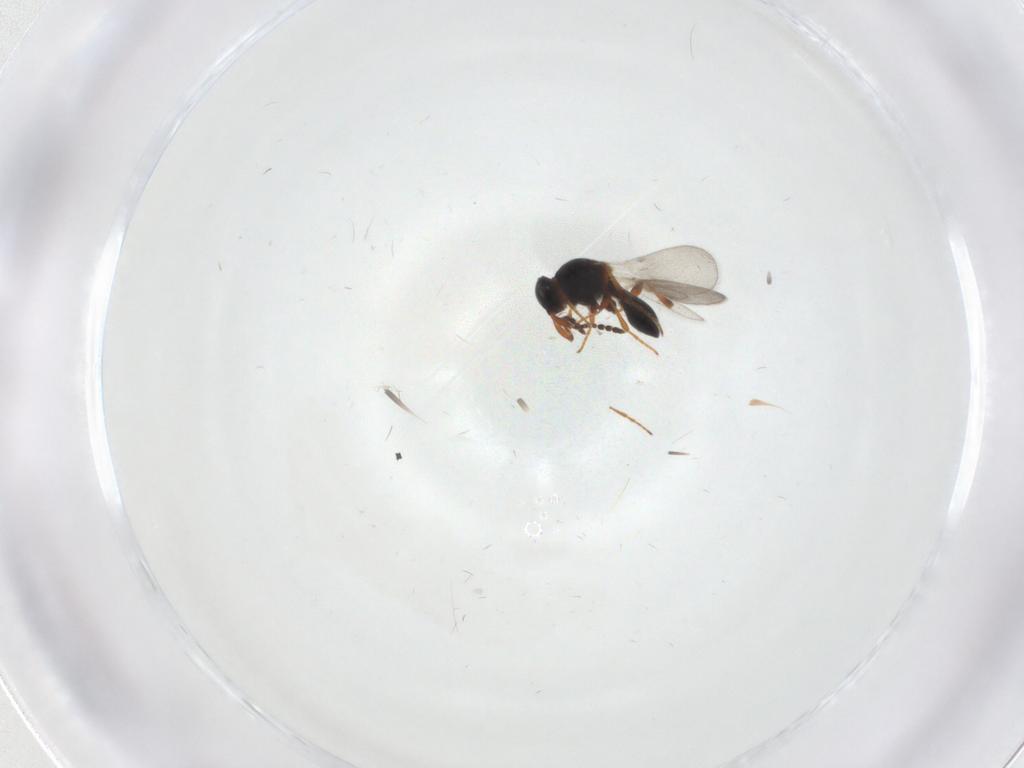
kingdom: Animalia
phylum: Arthropoda
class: Insecta
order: Hymenoptera
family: Platygastridae
